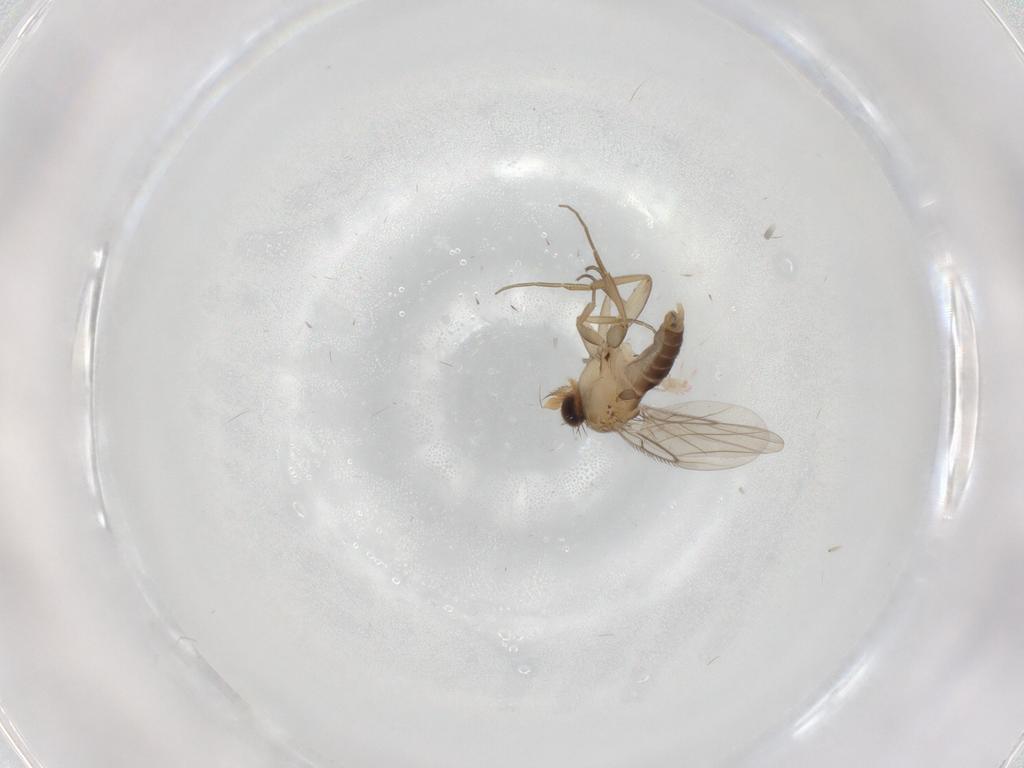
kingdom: Animalia
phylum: Arthropoda
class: Insecta
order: Diptera
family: Phoridae
